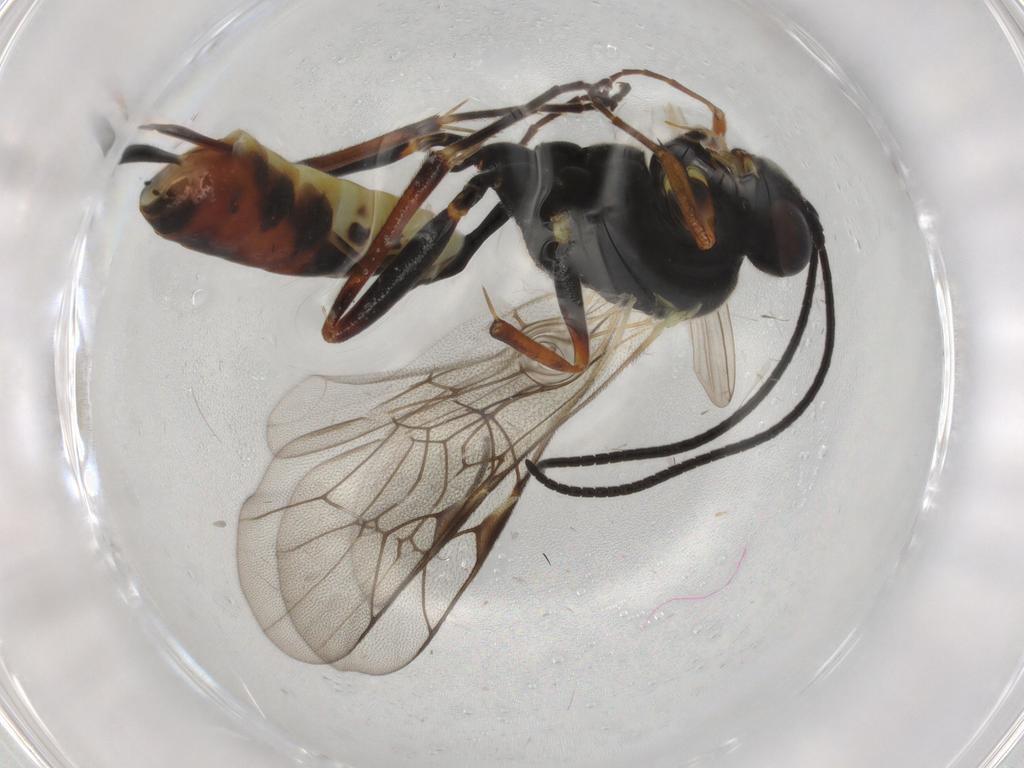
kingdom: Animalia
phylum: Arthropoda
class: Insecta
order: Hymenoptera
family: Ichneumonidae
